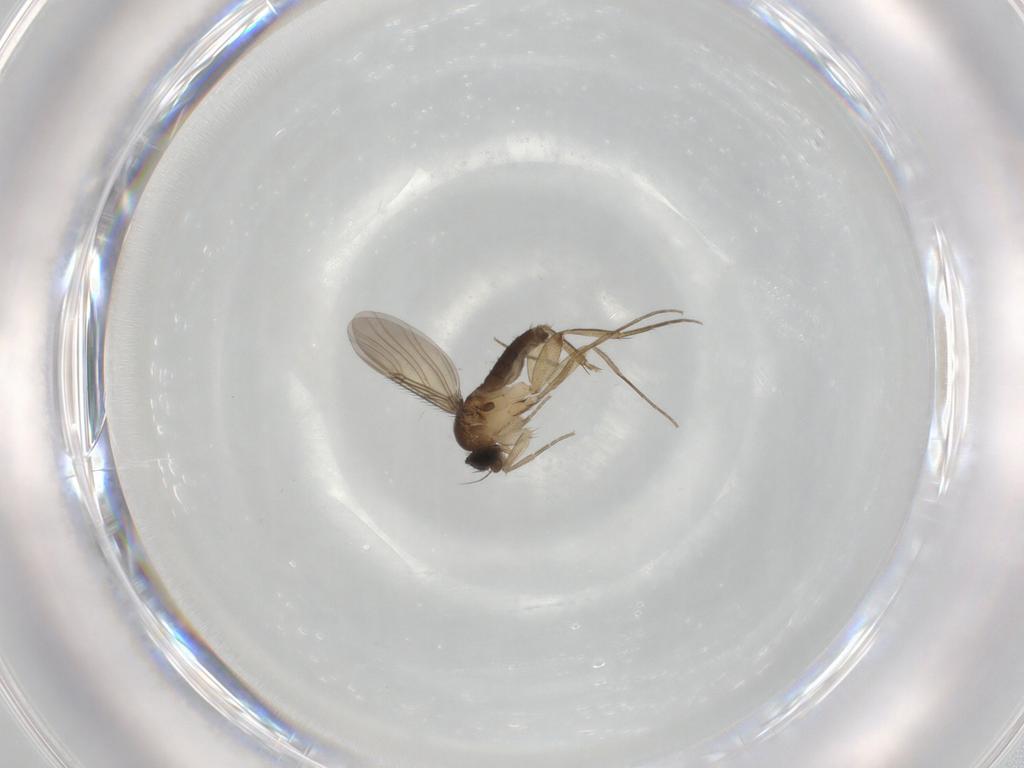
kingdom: Animalia
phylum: Arthropoda
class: Insecta
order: Diptera
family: Phoridae
